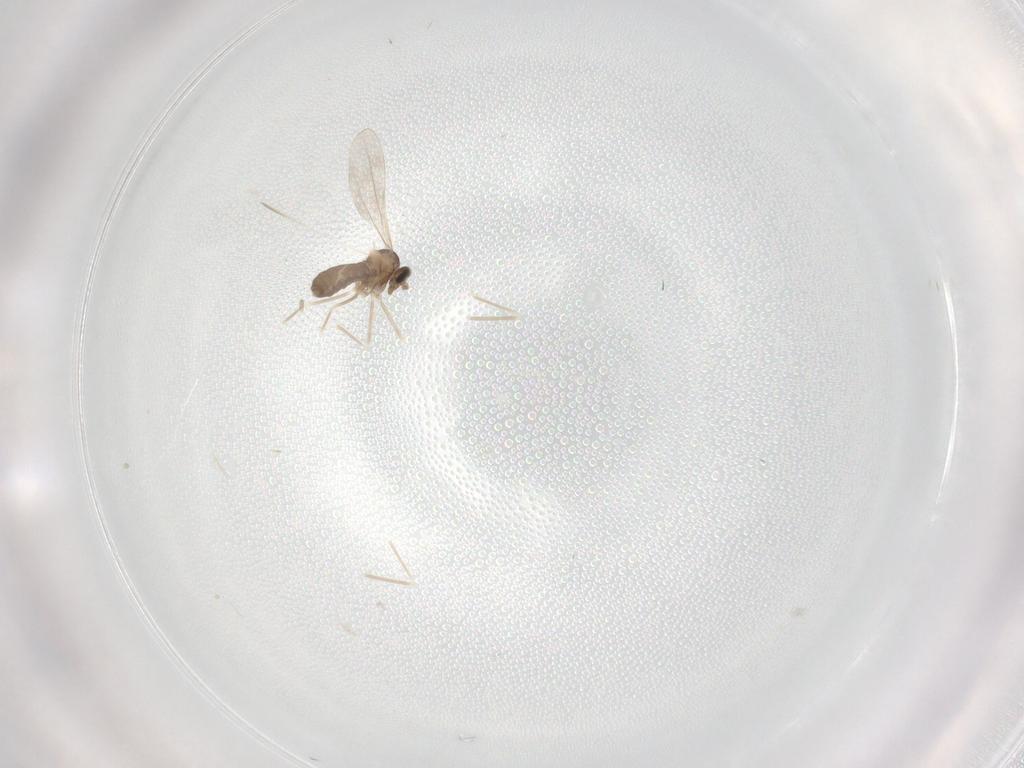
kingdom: Animalia
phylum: Arthropoda
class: Insecta
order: Diptera
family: Cecidomyiidae
